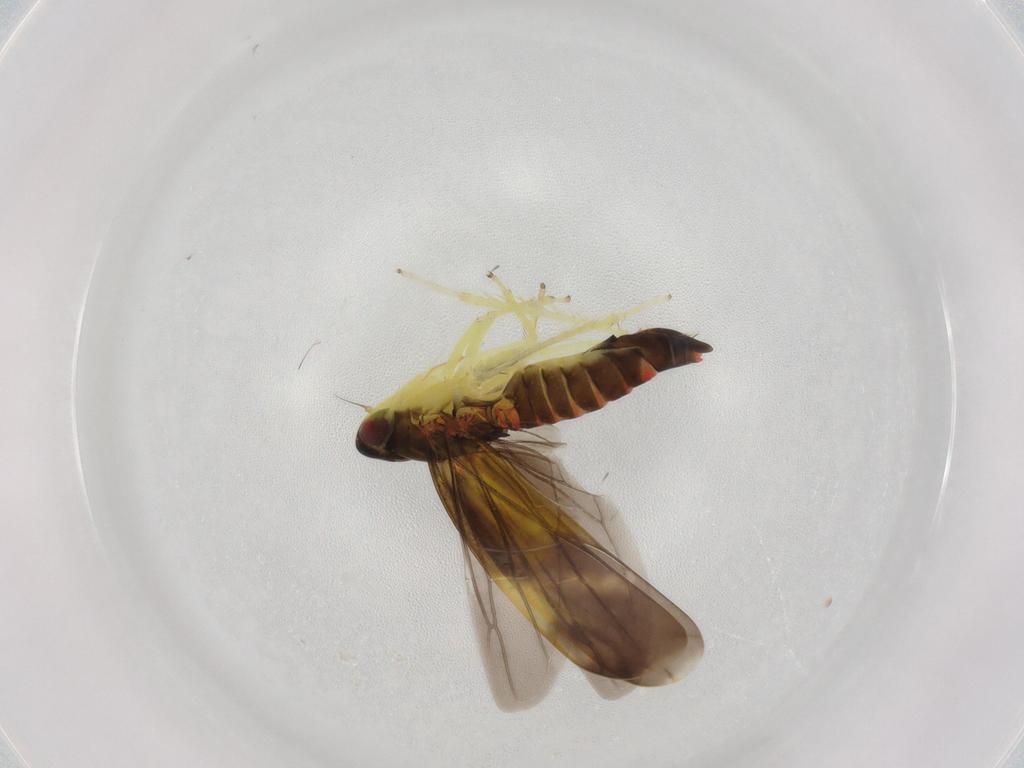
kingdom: Animalia
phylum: Arthropoda
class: Insecta
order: Hemiptera
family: Cicadellidae
